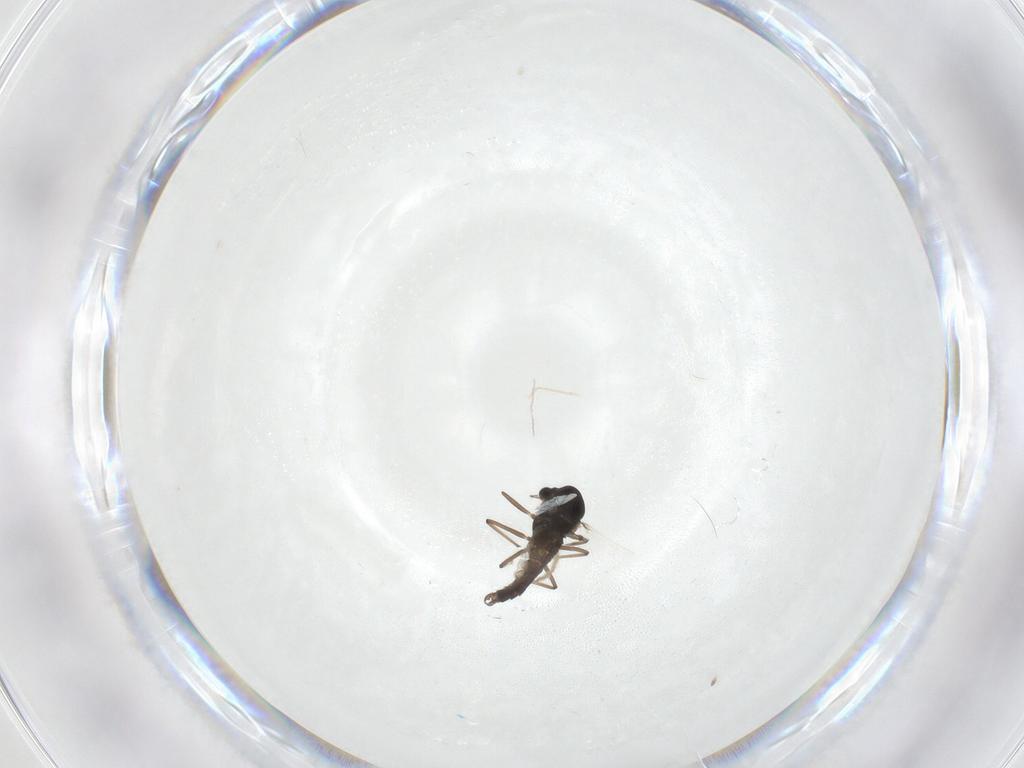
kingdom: Animalia
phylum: Arthropoda
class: Insecta
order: Diptera
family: Chironomidae
